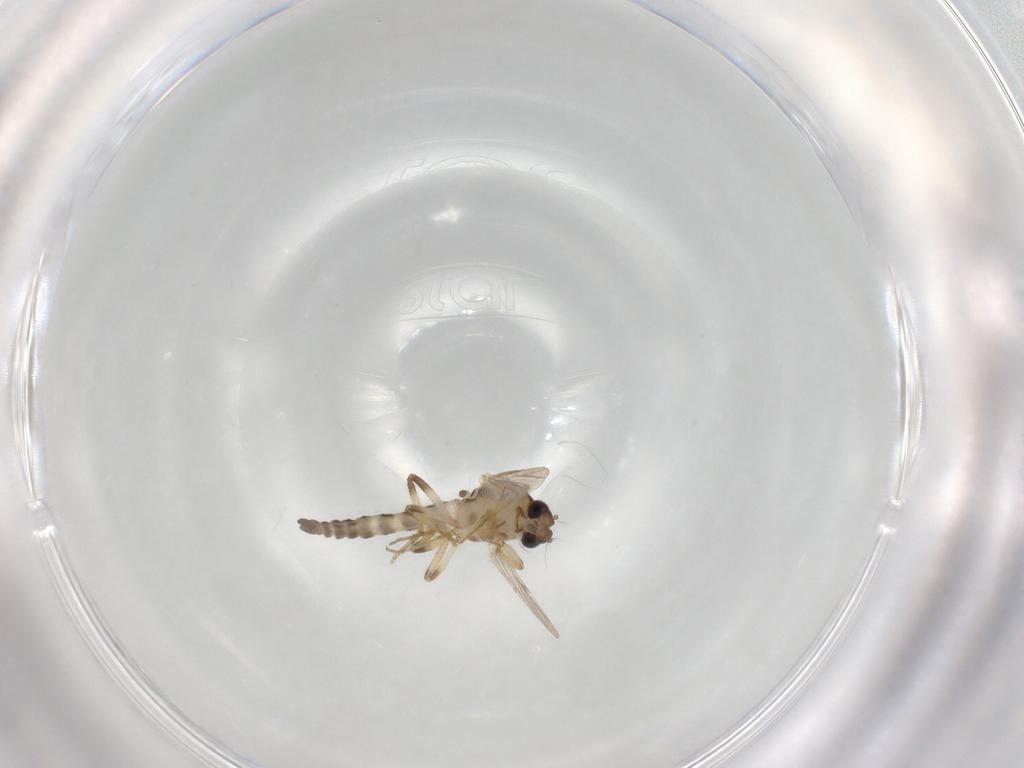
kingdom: Animalia
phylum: Arthropoda
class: Insecta
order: Diptera
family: Ceratopogonidae
